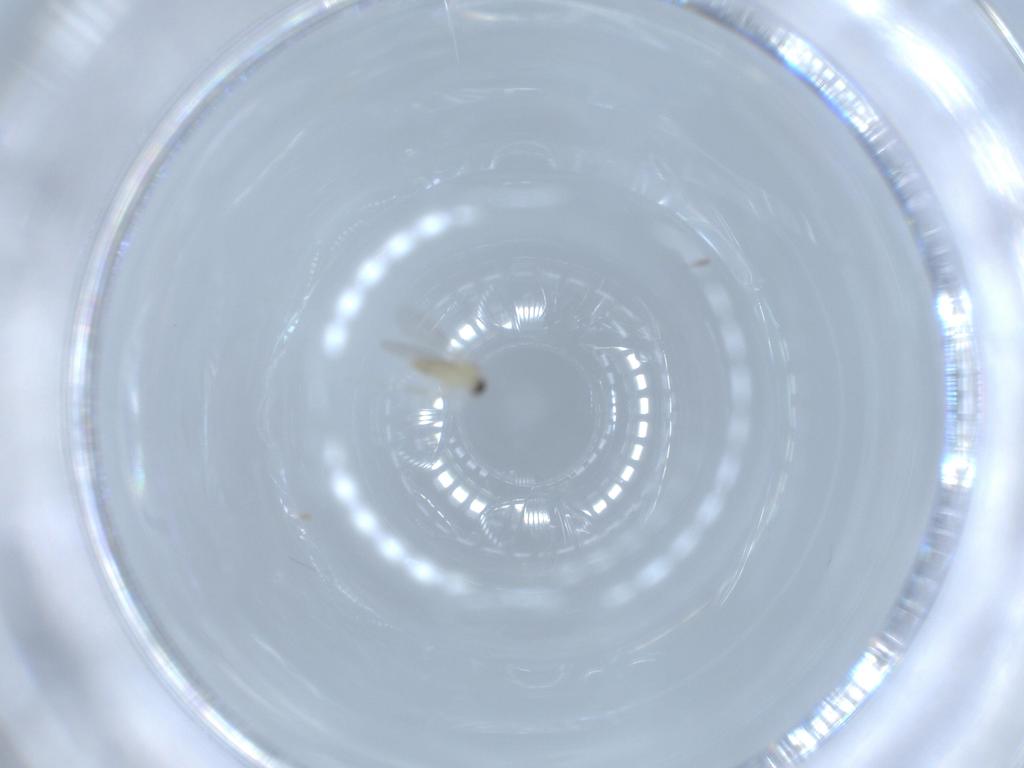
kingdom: Animalia
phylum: Arthropoda
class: Insecta
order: Diptera
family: Cecidomyiidae
